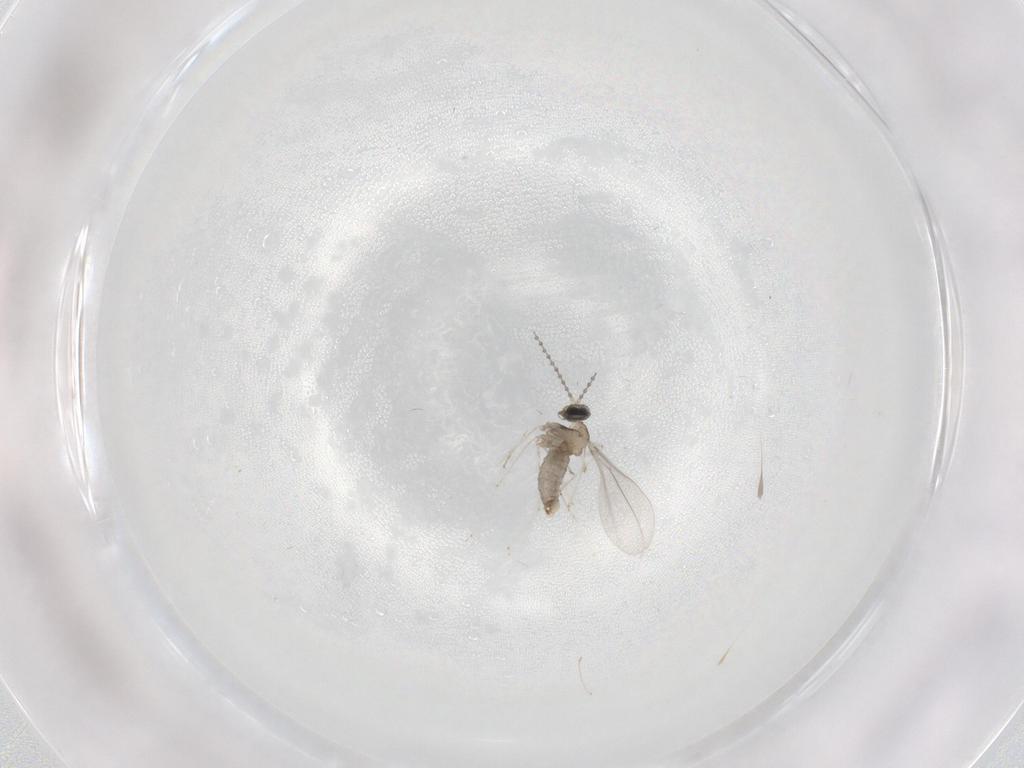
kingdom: Animalia
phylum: Arthropoda
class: Insecta
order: Diptera
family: Cecidomyiidae
